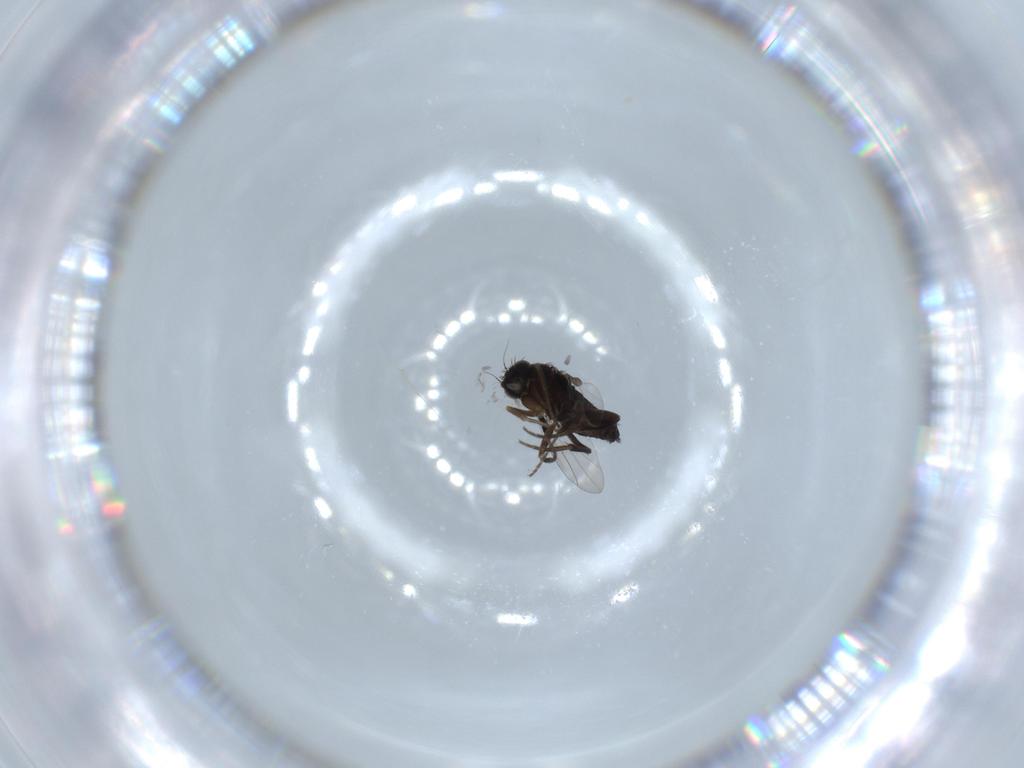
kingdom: Animalia
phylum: Arthropoda
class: Insecta
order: Diptera
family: Phoridae
